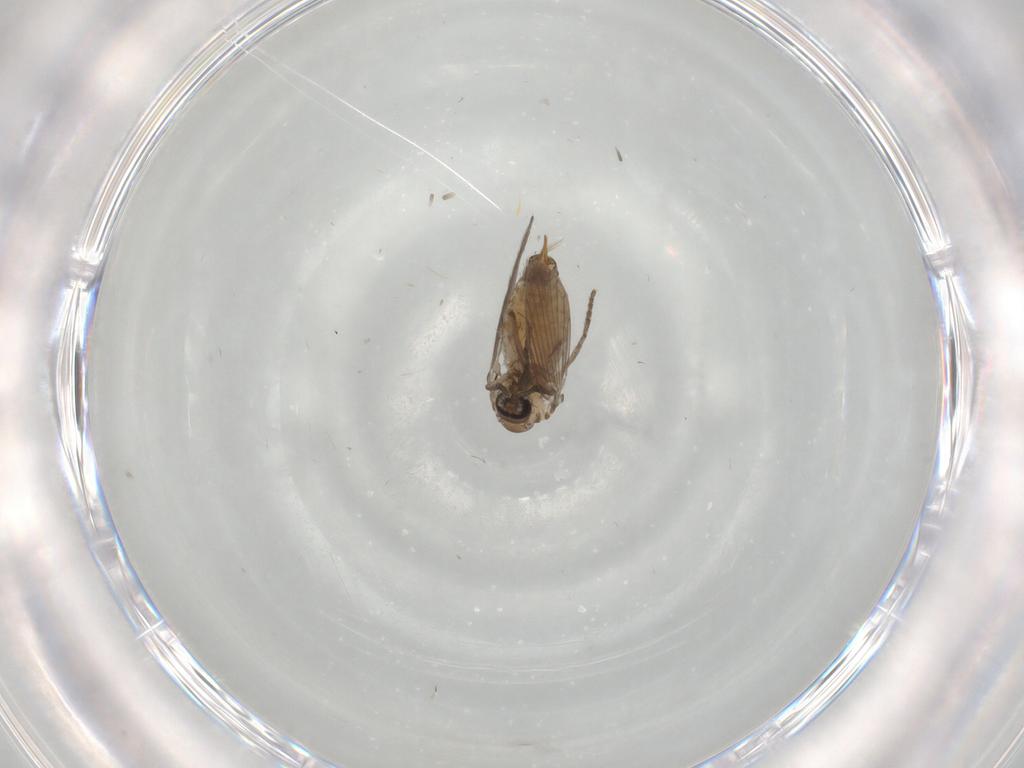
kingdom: Animalia
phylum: Arthropoda
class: Insecta
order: Diptera
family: Psychodidae
